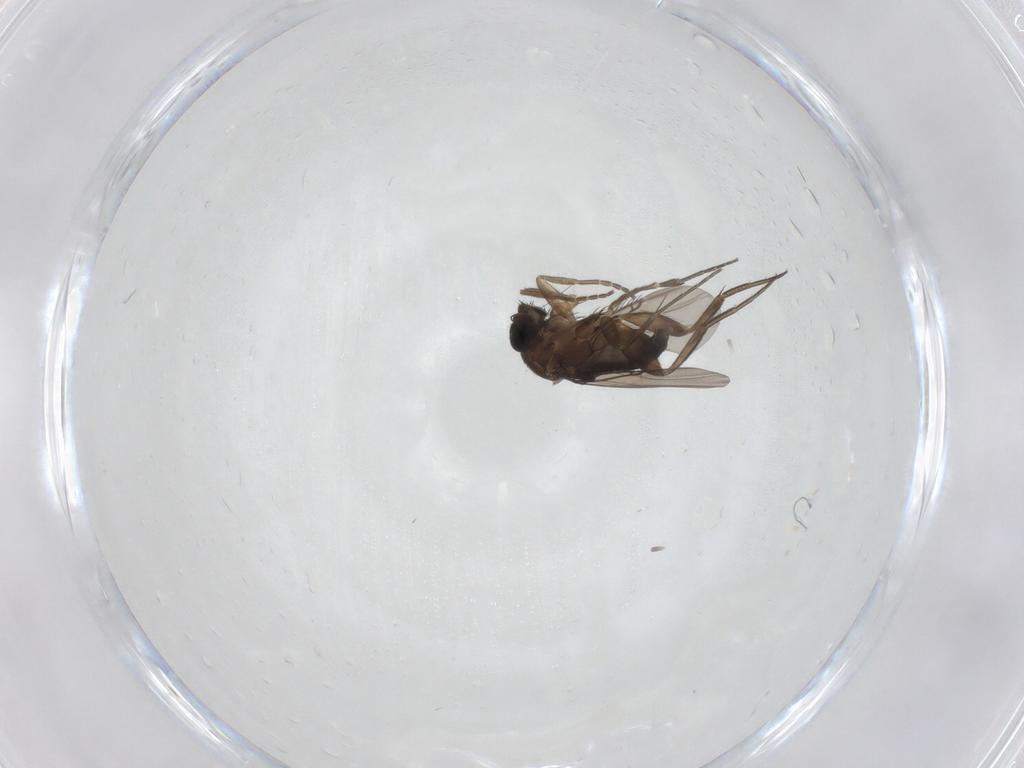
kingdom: Animalia
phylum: Arthropoda
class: Insecta
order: Diptera
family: Phoridae
